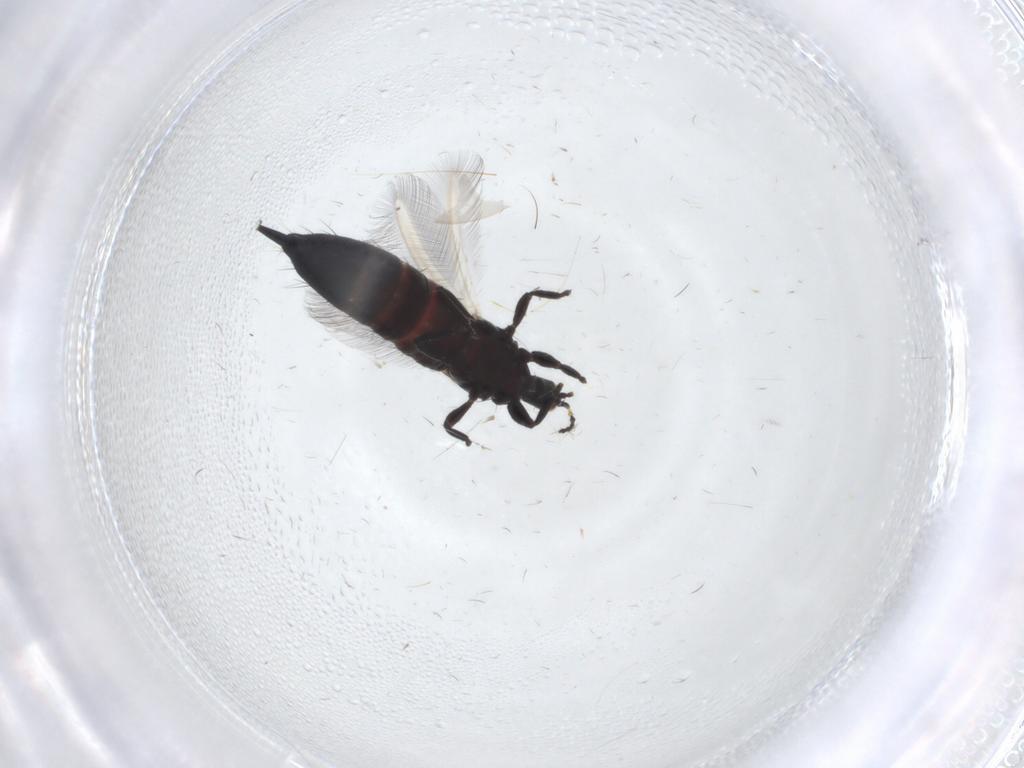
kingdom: Animalia
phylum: Arthropoda
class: Insecta
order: Thysanoptera
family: Phlaeothripidae
